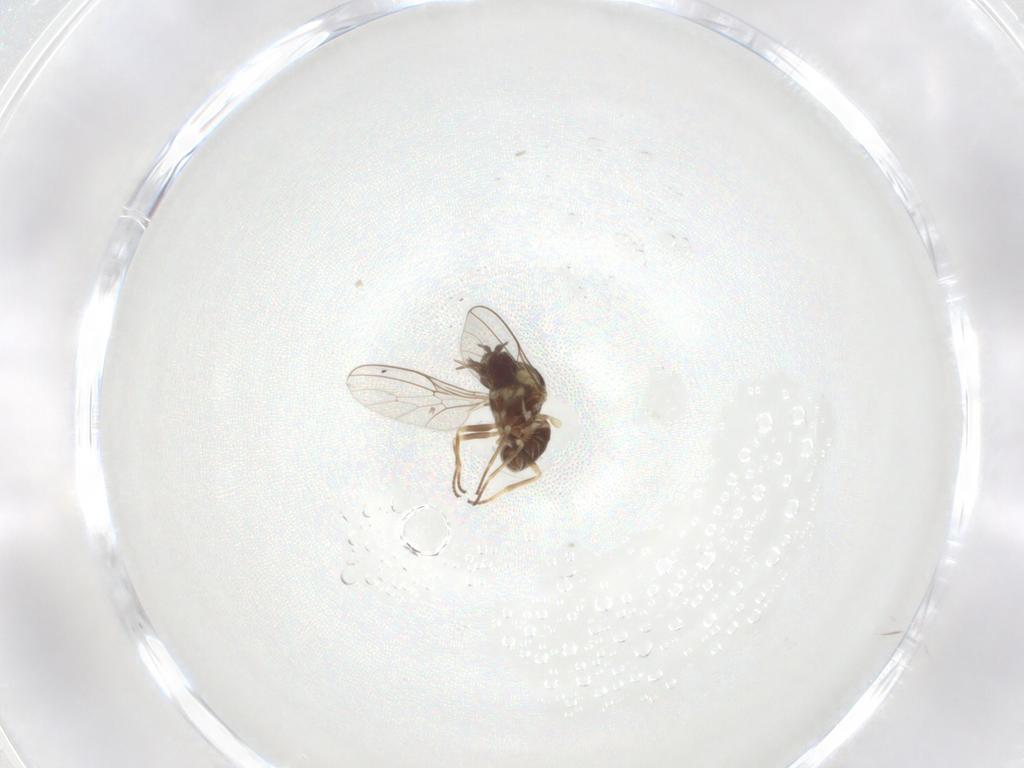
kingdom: Animalia
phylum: Arthropoda
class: Insecta
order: Diptera
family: Bombyliidae
